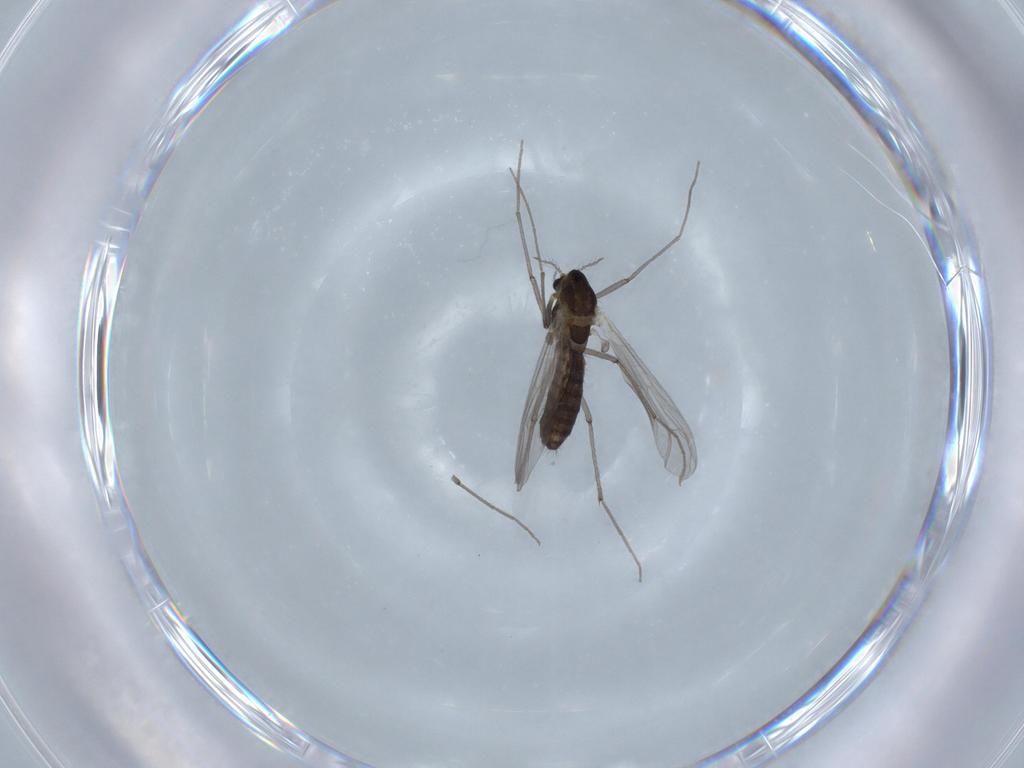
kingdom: Animalia
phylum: Arthropoda
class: Insecta
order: Diptera
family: Chironomidae
